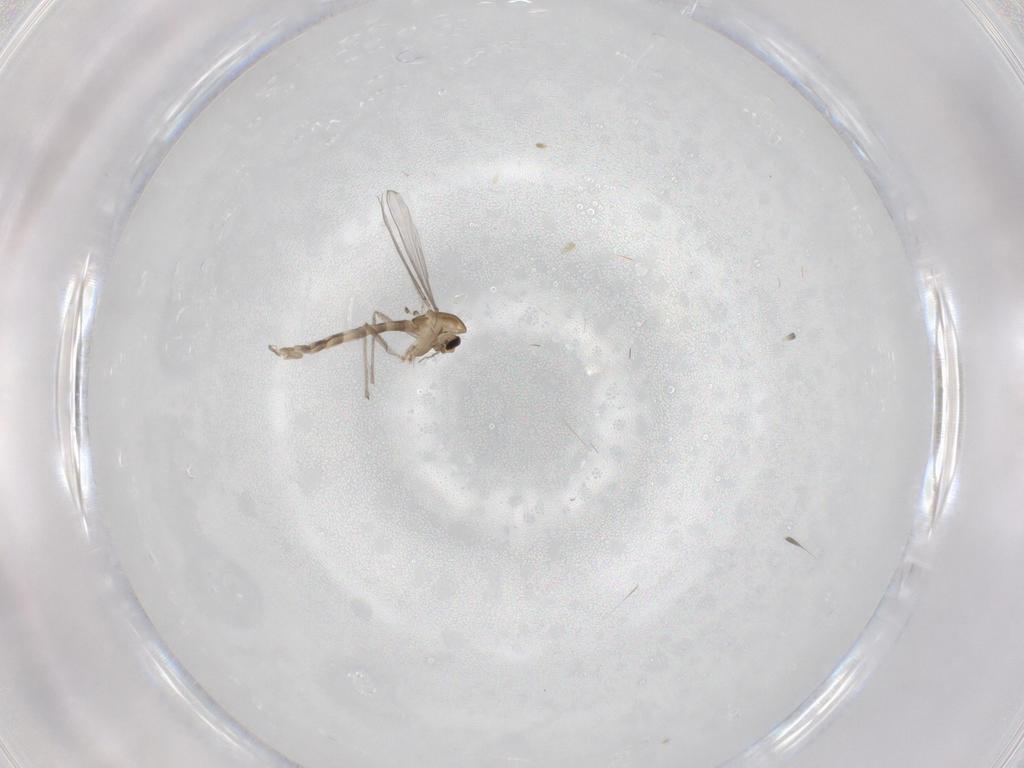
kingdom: Animalia
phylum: Arthropoda
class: Insecta
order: Diptera
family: Chironomidae
